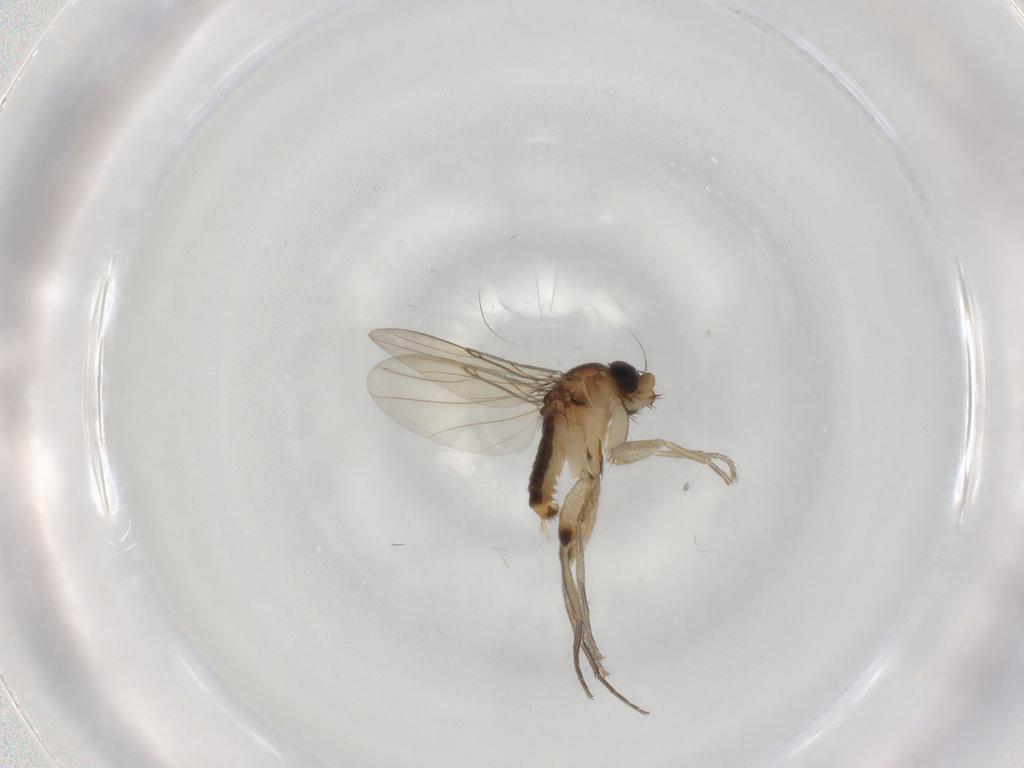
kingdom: Animalia
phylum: Arthropoda
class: Insecta
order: Diptera
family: Phoridae
